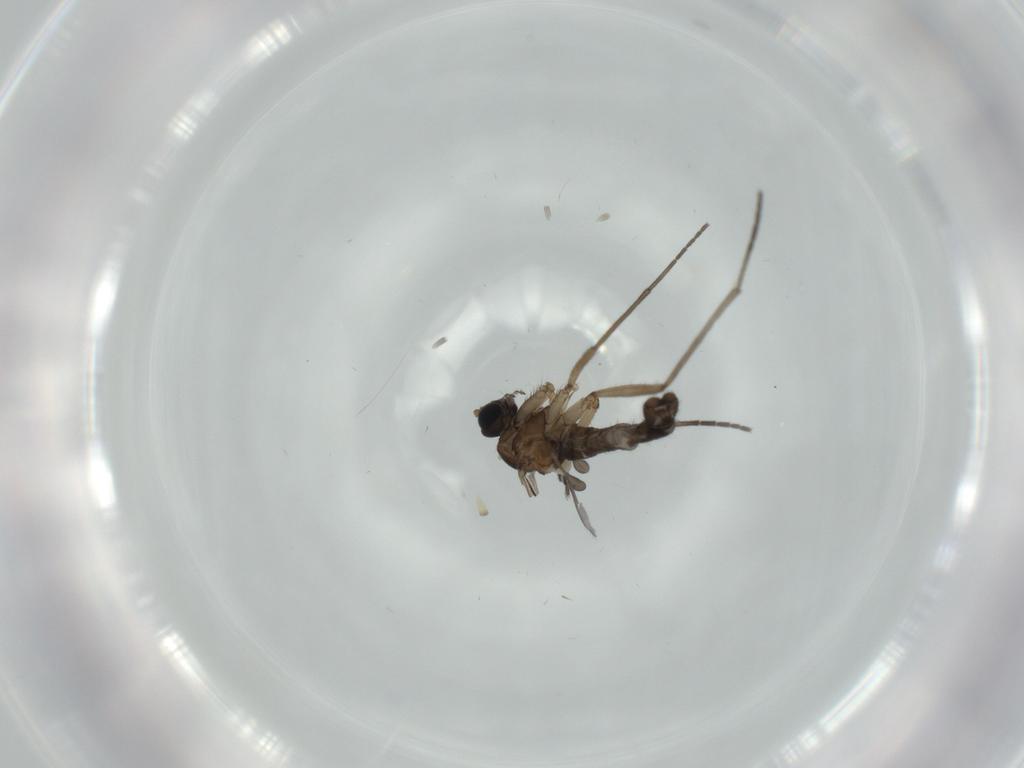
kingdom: Animalia
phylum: Arthropoda
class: Insecta
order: Diptera
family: Sciaridae
